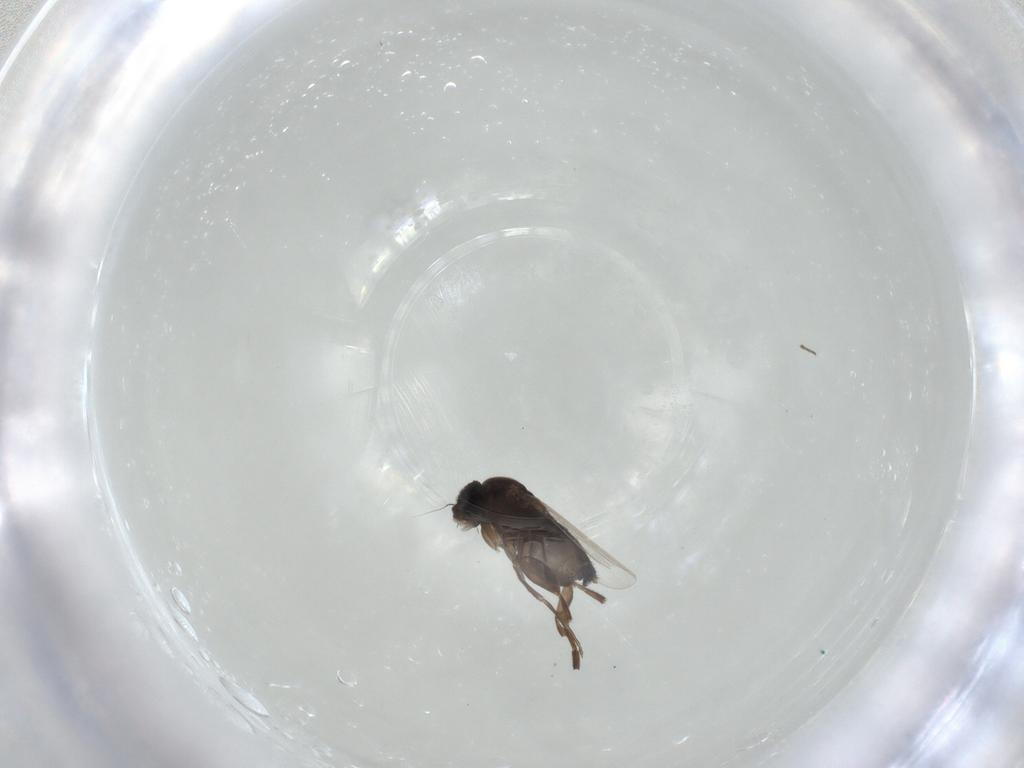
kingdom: Animalia
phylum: Arthropoda
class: Insecta
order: Diptera
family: Phoridae
